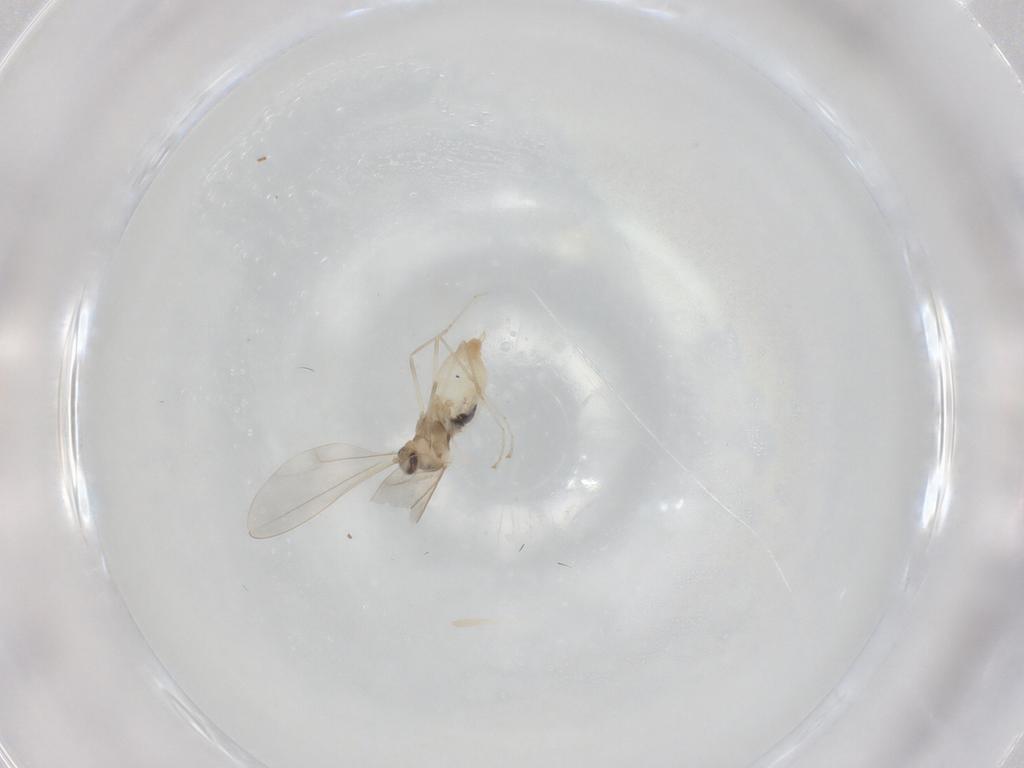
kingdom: Animalia
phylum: Arthropoda
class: Insecta
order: Diptera
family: Cecidomyiidae
